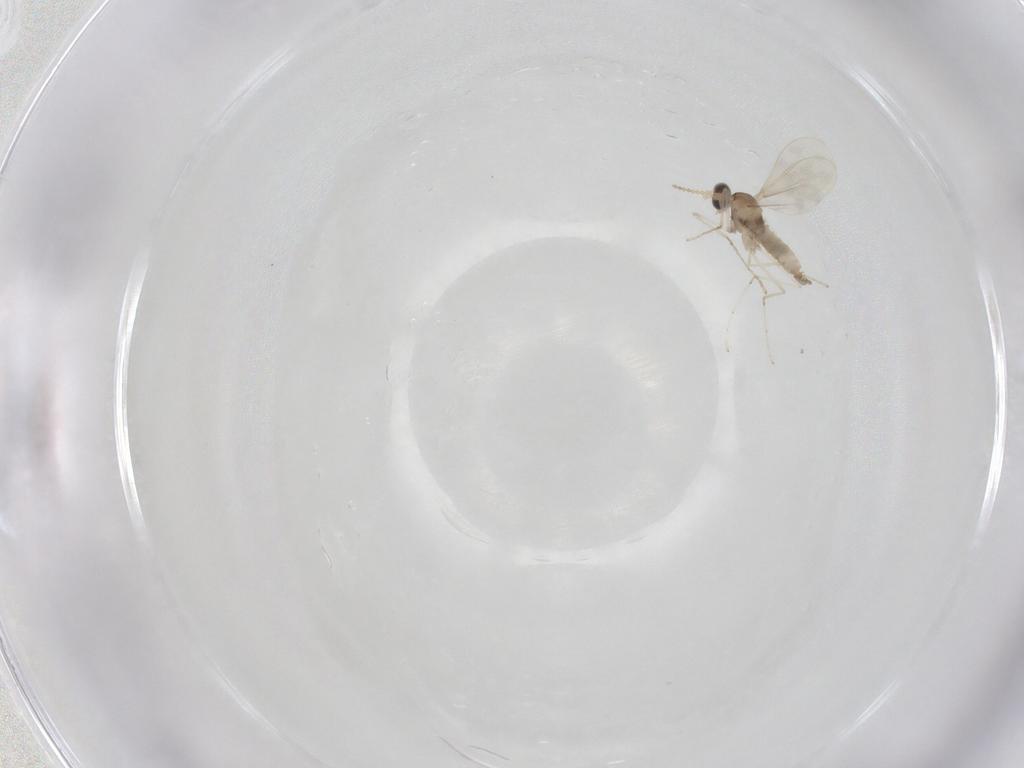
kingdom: Animalia
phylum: Arthropoda
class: Insecta
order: Diptera
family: Cecidomyiidae
